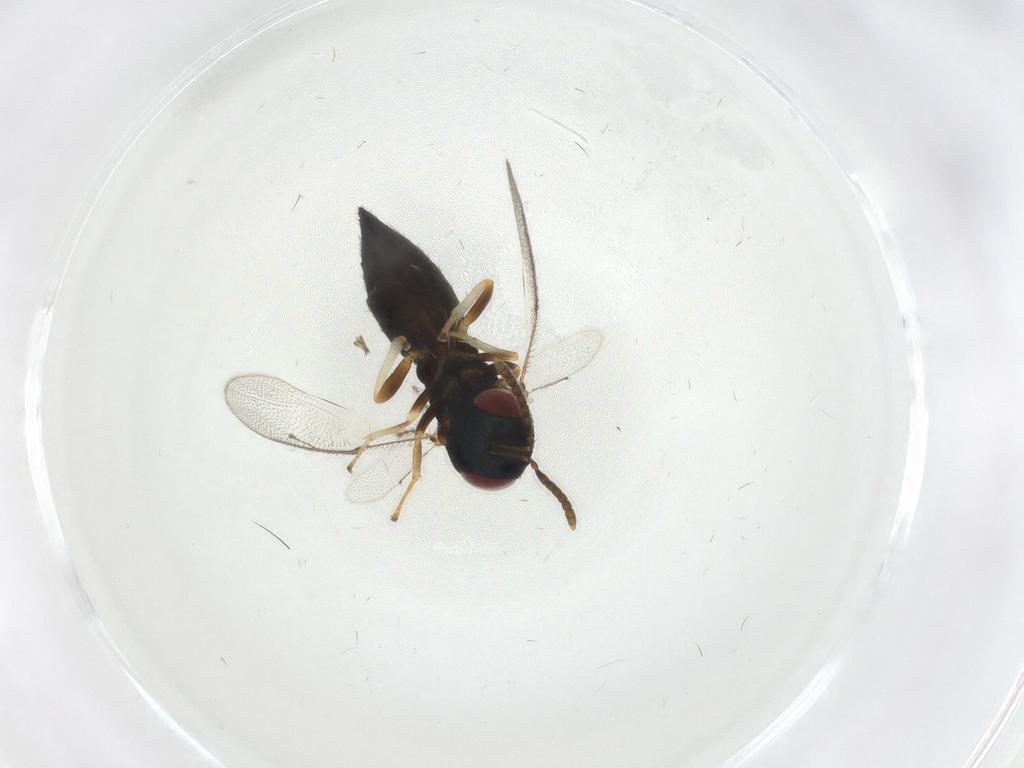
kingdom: Animalia
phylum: Arthropoda
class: Insecta
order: Hymenoptera
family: Pteromalidae
